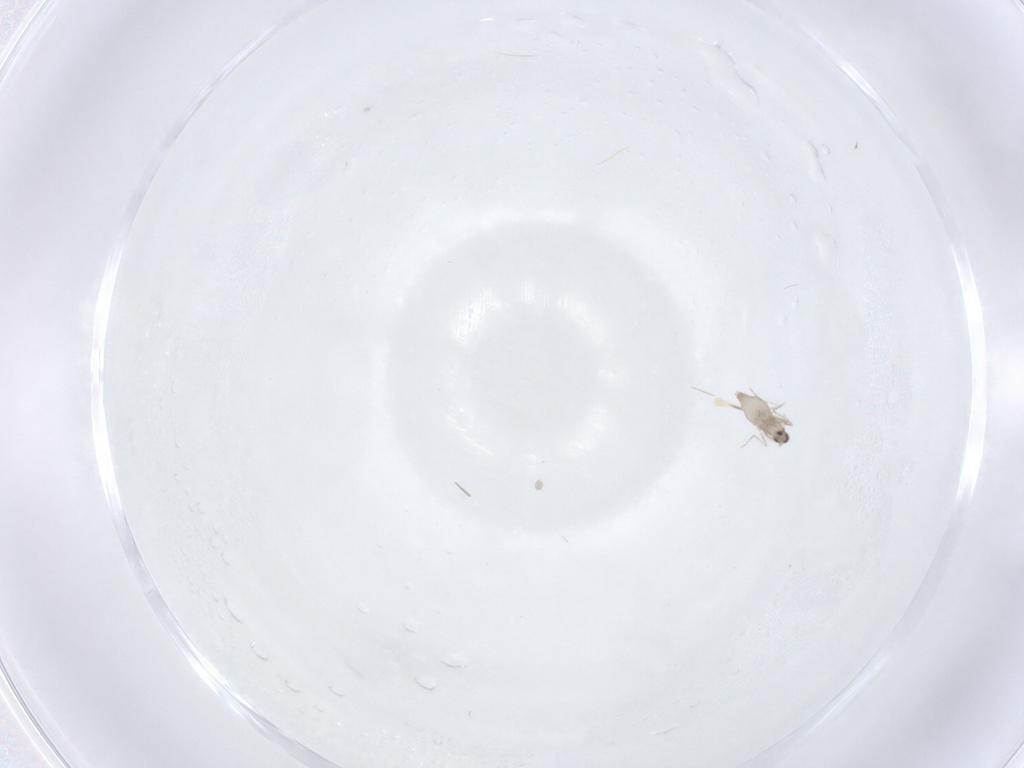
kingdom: Animalia
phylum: Arthropoda
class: Insecta
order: Diptera
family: Cecidomyiidae
